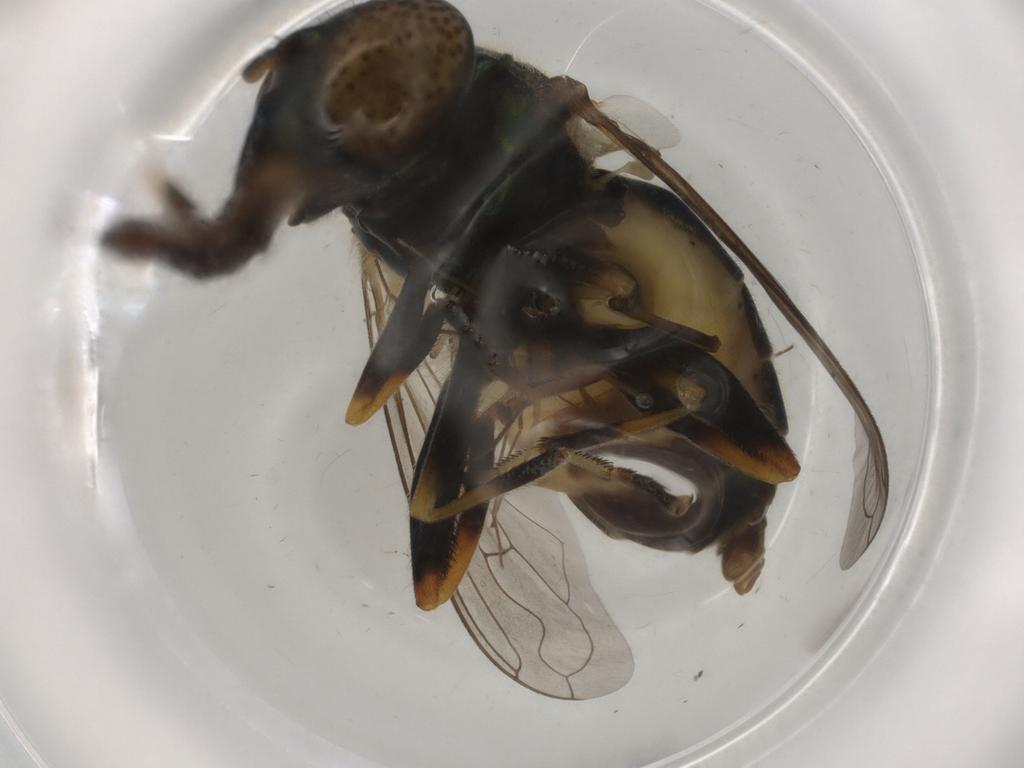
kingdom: Animalia
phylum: Arthropoda
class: Insecta
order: Diptera
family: Sciaridae
